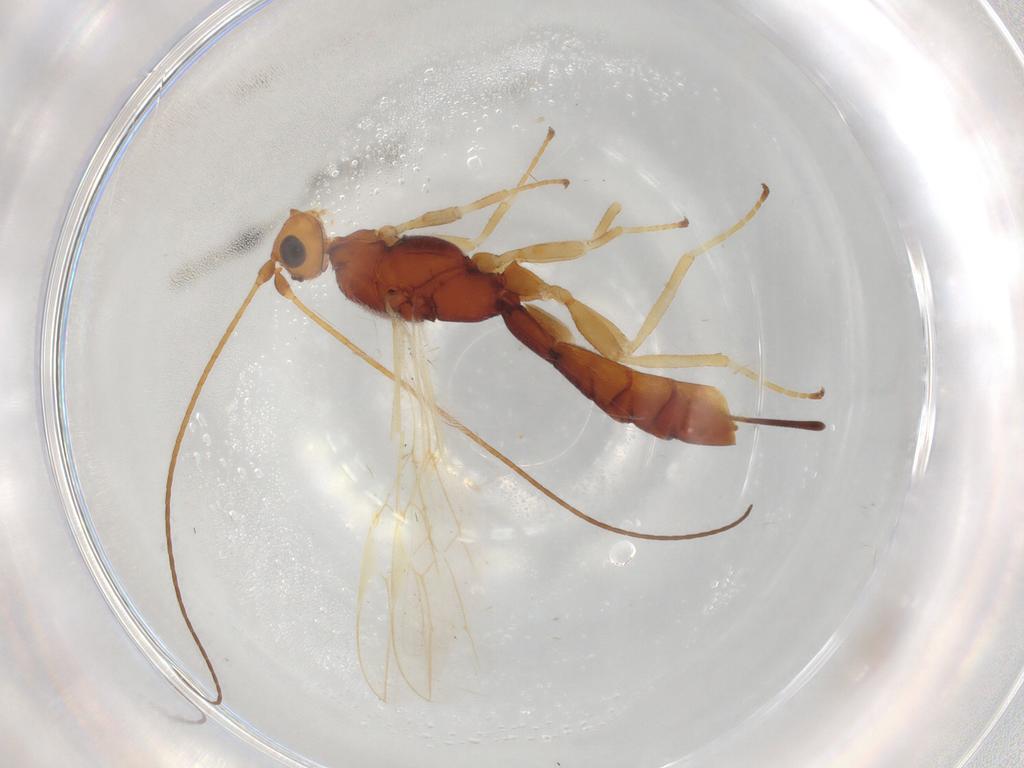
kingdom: Animalia
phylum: Arthropoda
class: Insecta
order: Hymenoptera
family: Braconidae
